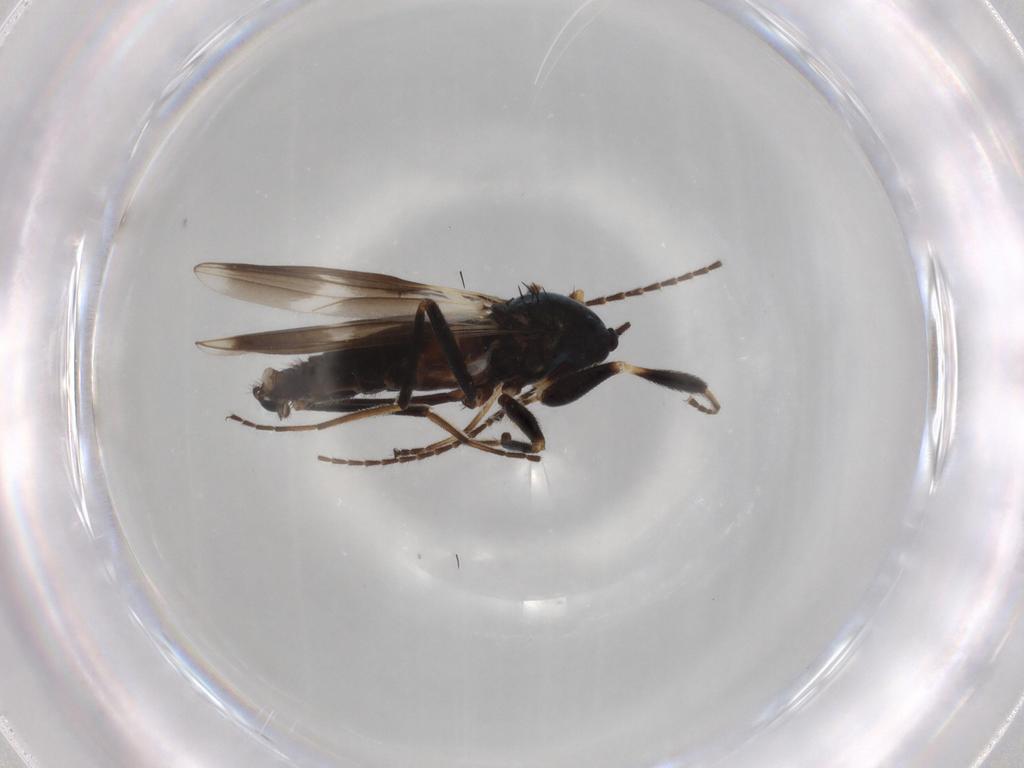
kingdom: Animalia
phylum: Arthropoda
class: Insecta
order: Diptera
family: Hybotidae
